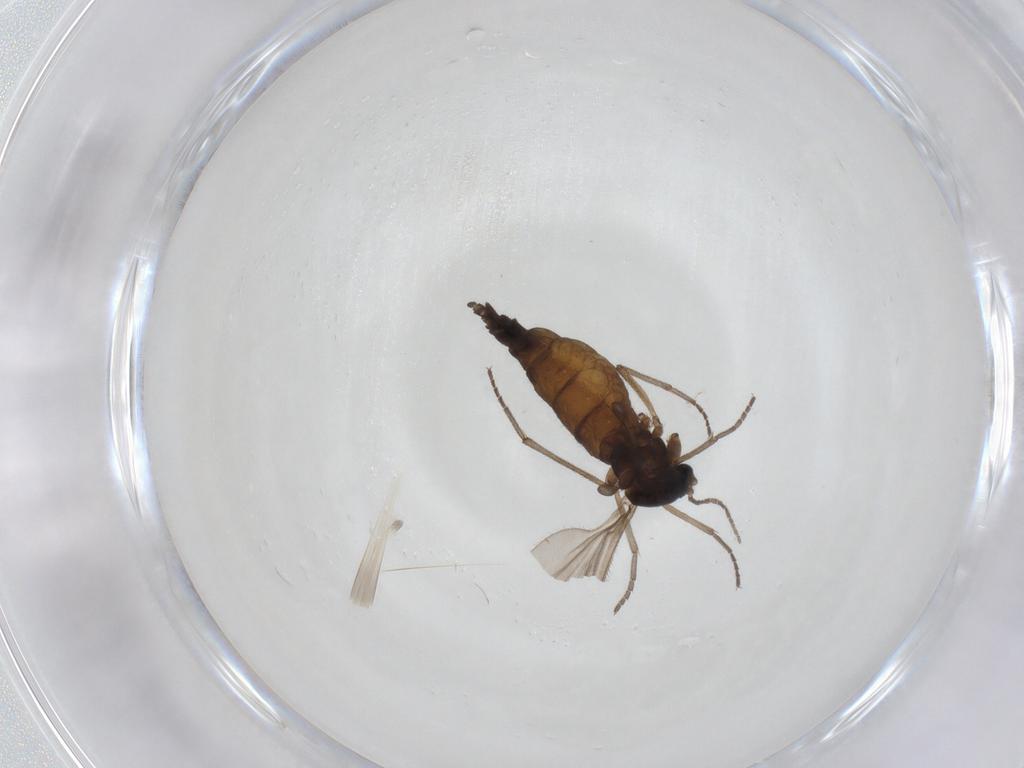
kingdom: Animalia
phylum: Arthropoda
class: Insecta
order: Diptera
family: Sciaridae
